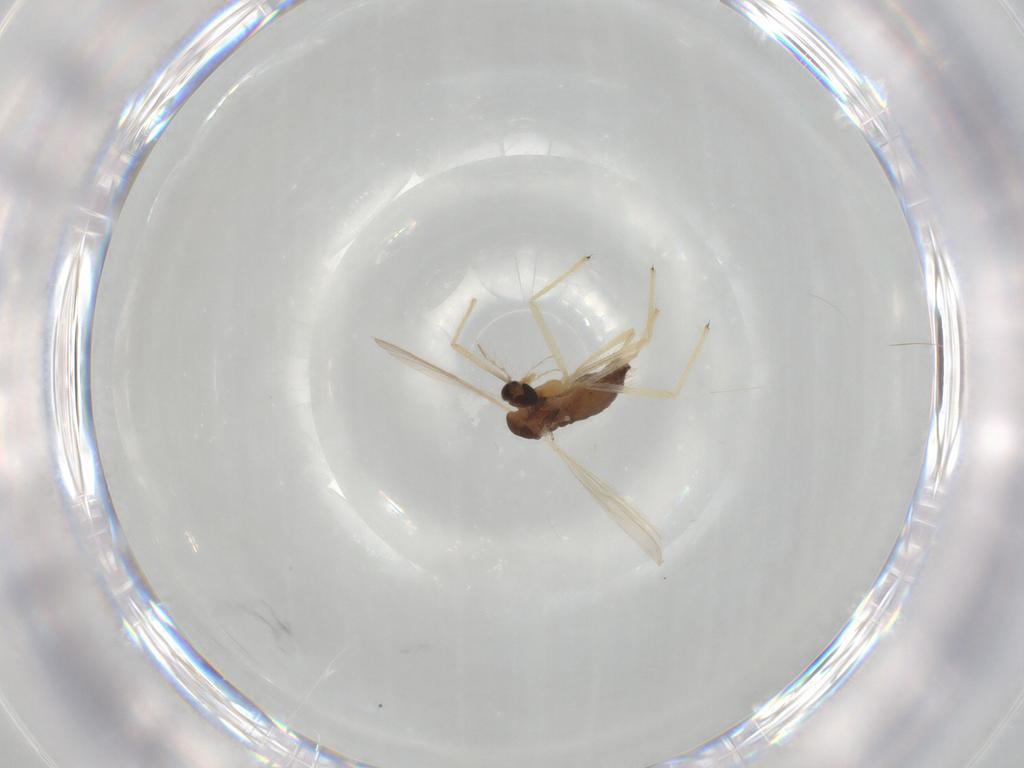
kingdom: Animalia
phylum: Arthropoda
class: Insecta
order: Diptera
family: Chironomidae
